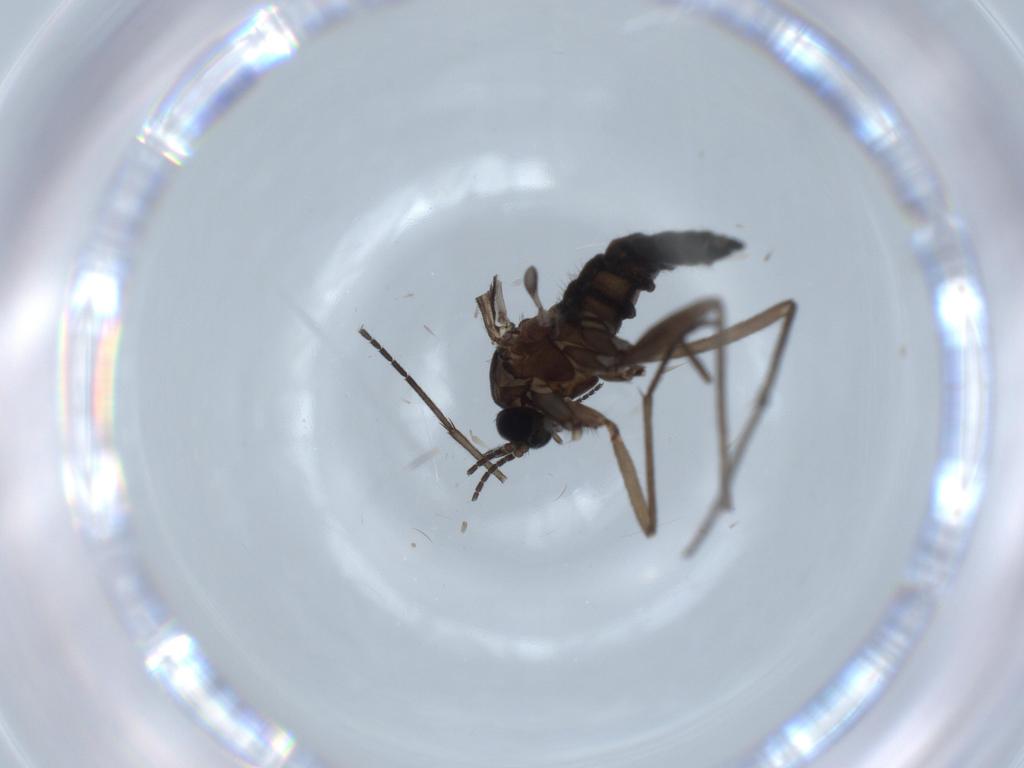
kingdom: Animalia
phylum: Arthropoda
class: Insecta
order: Diptera
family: Sciaridae
